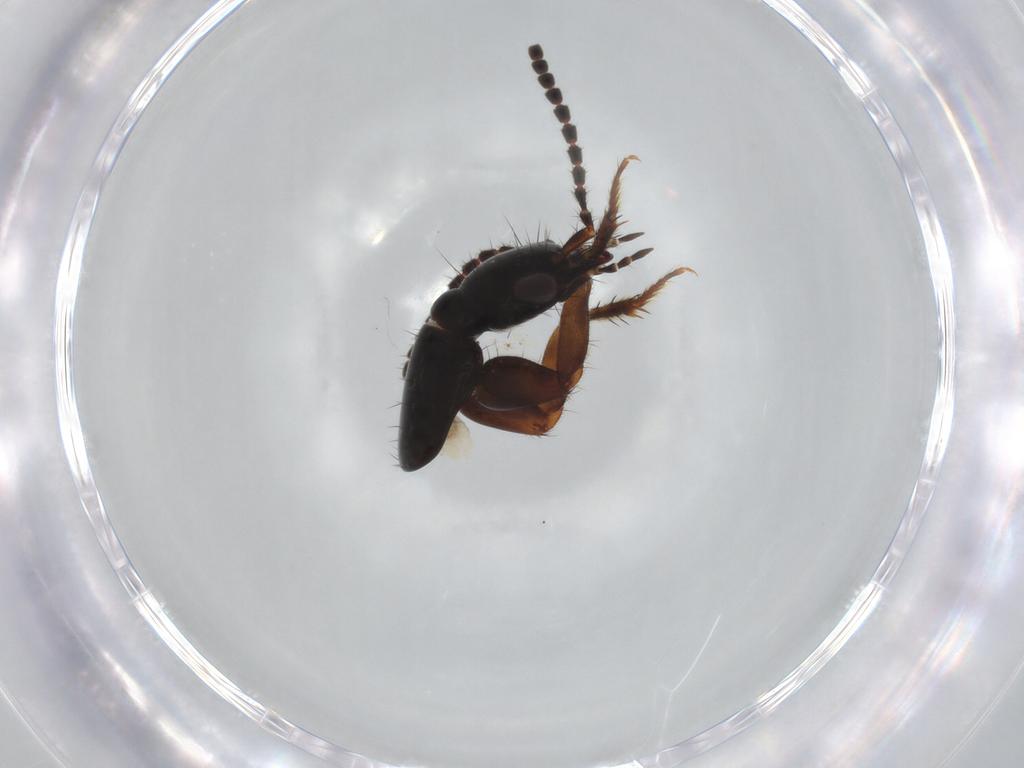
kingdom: Animalia
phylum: Arthropoda
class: Insecta
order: Coleoptera
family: Staphylinidae
